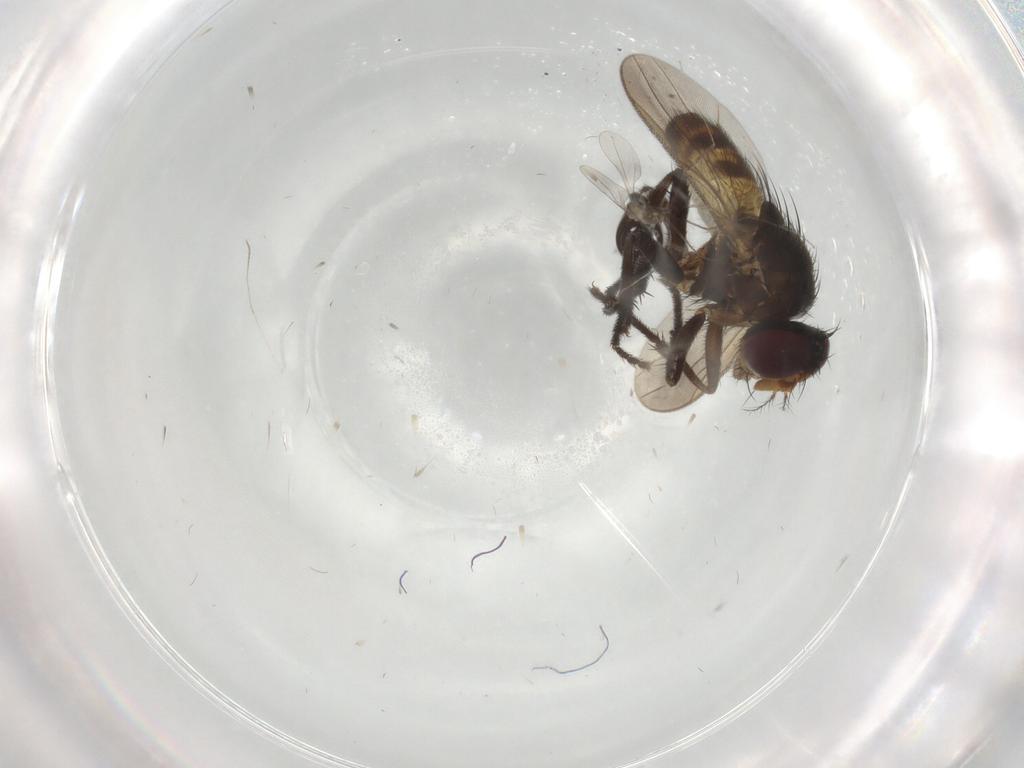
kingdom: Animalia
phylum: Arthropoda
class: Insecta
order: Diptera
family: Anthomyiidae
